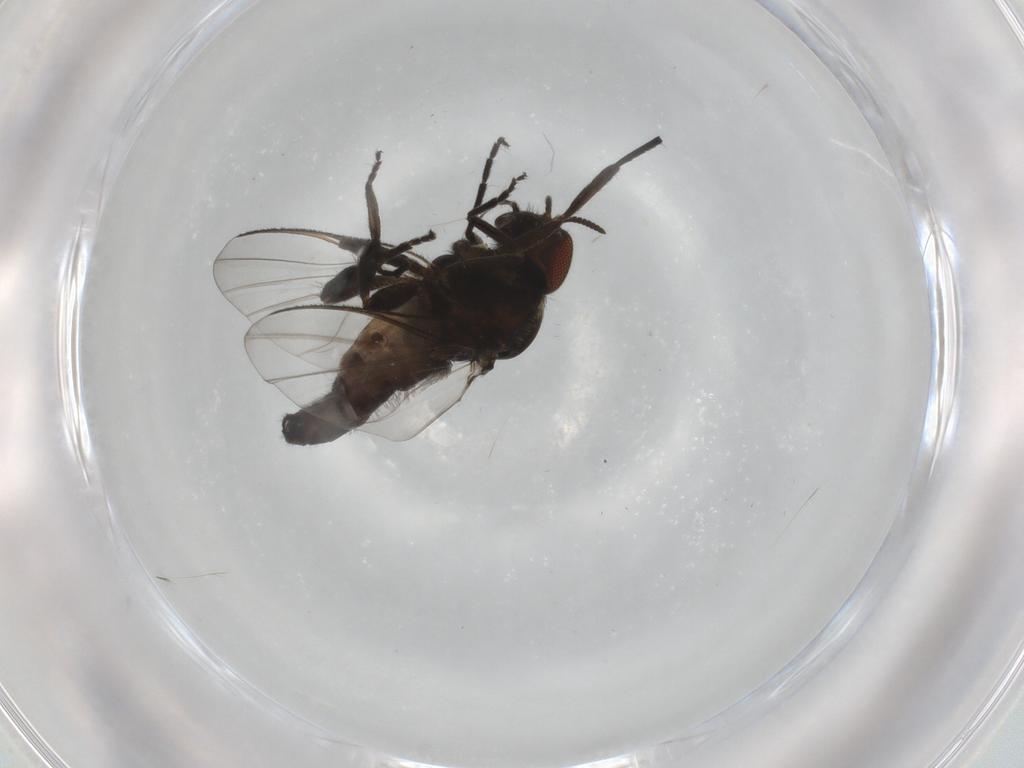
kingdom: Animalia
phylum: Arthropoda
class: Insecta
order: Diptera
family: Simuliidae
